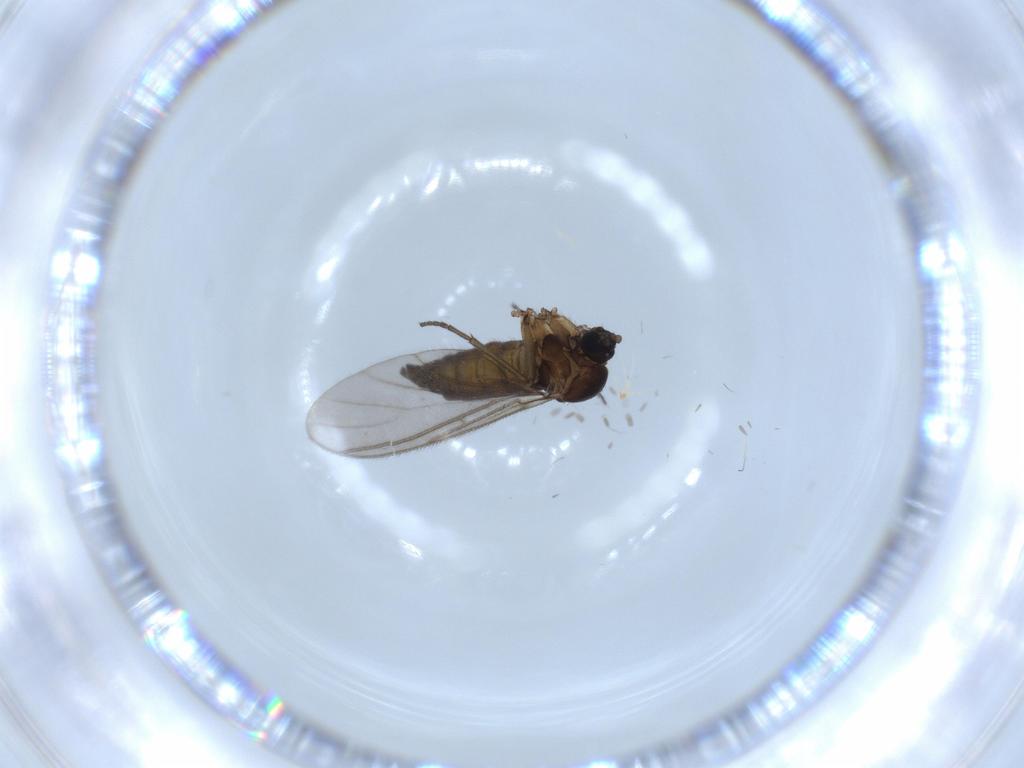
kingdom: Animalia
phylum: Arthropoda
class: Insecta
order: Diptera
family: Sciaridae
